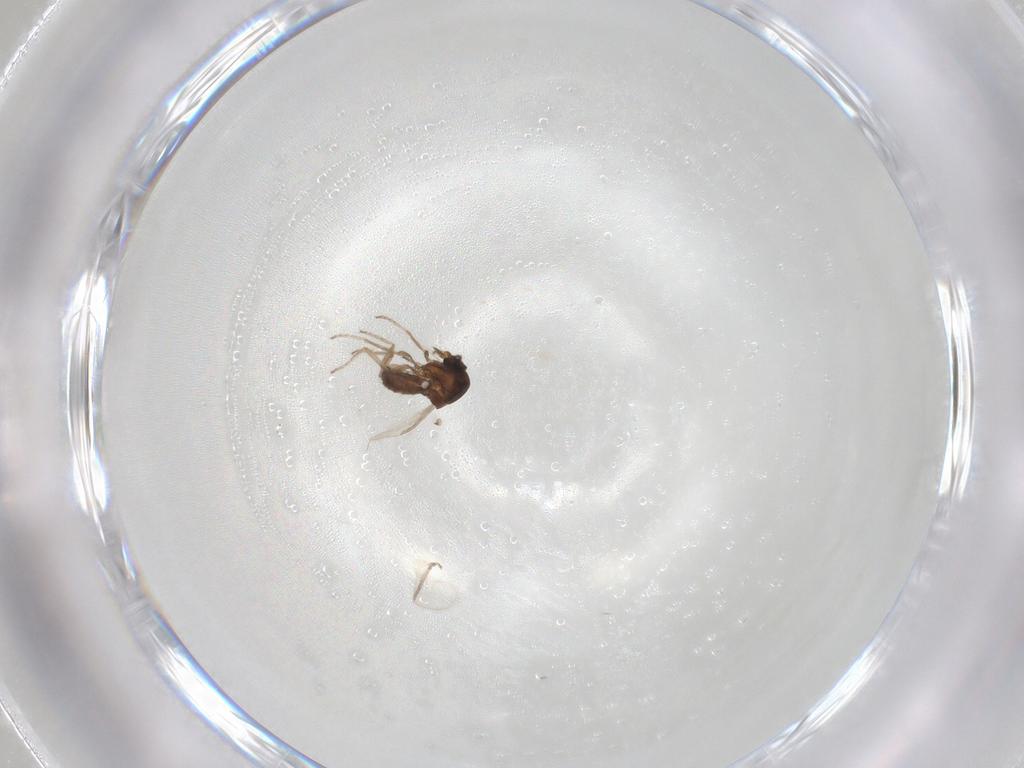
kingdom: Animalia
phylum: Arthropoda
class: Insecta
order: Diptera
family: Ceratopogonidae
